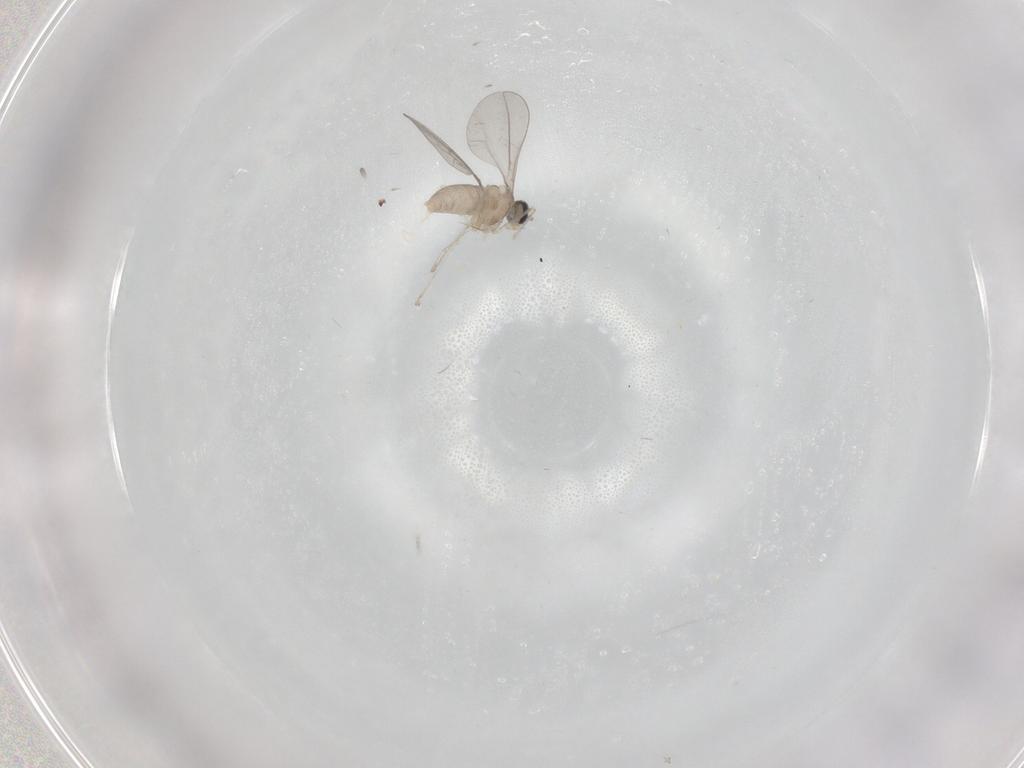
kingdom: Animalia
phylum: Arthropoda
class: Insecta
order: Diptera
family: Cecidomyiidae
